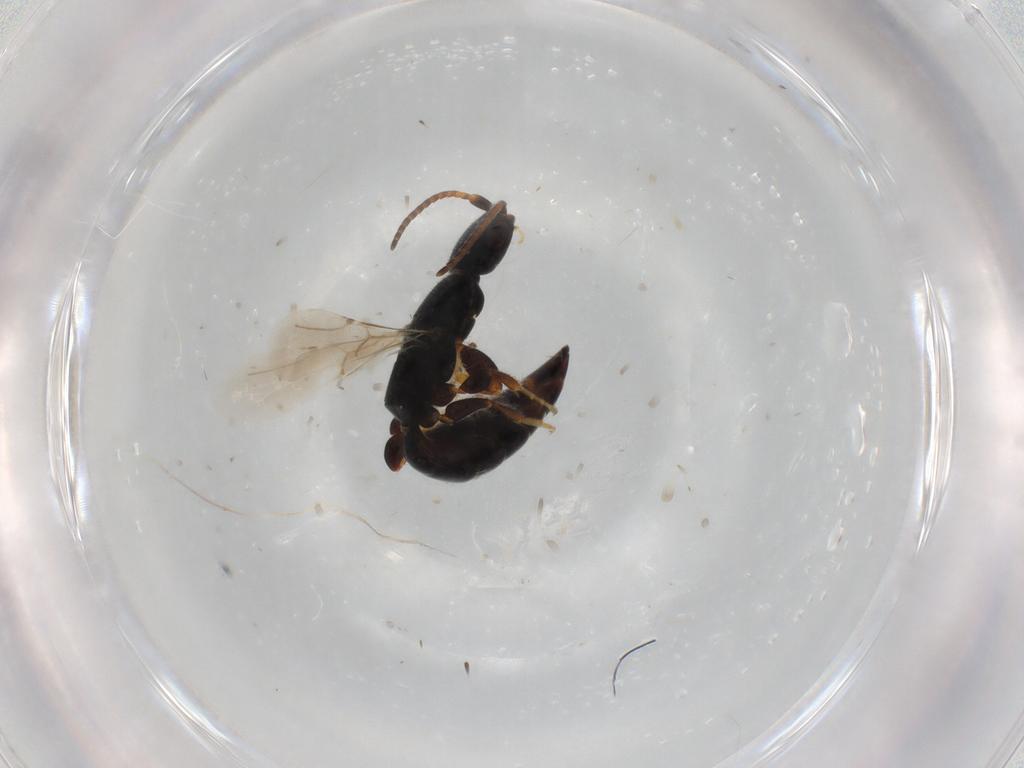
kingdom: Animalia
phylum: Arthropoda
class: Insecta
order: Hymenoptera
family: Bethylidae
